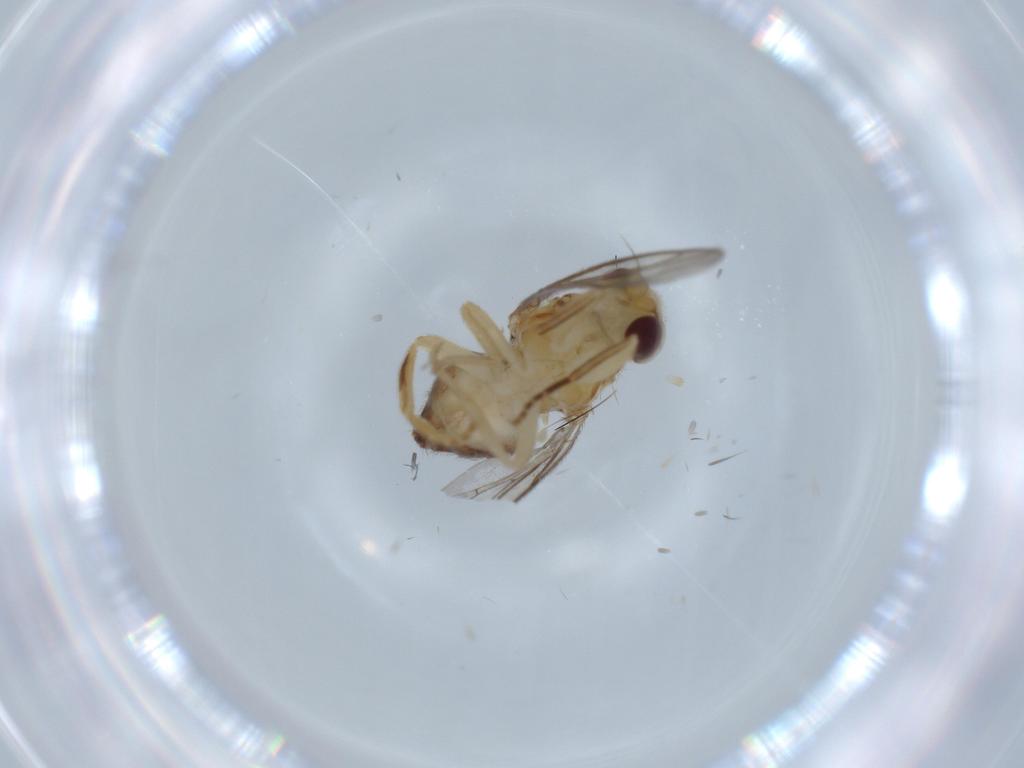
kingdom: Animalia
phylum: Arthropoda
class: Insecta
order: Diptera
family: Chloropidae
